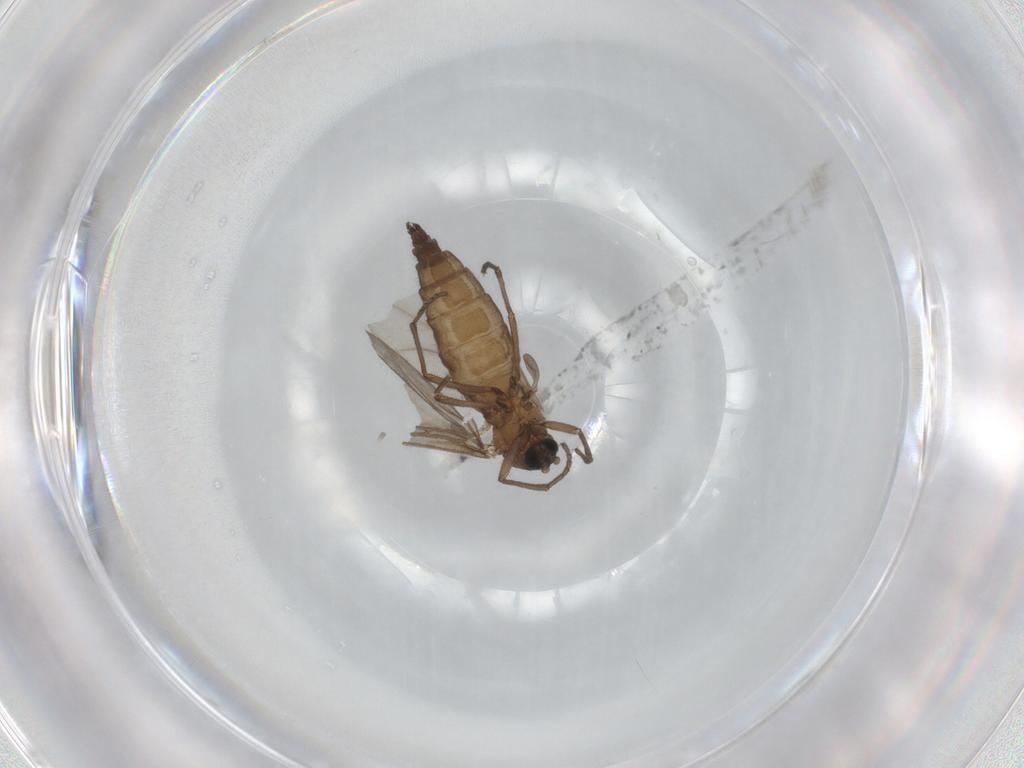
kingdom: Animalia
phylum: Arthropoda
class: Insecta
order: Diptera
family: Sciaridae
